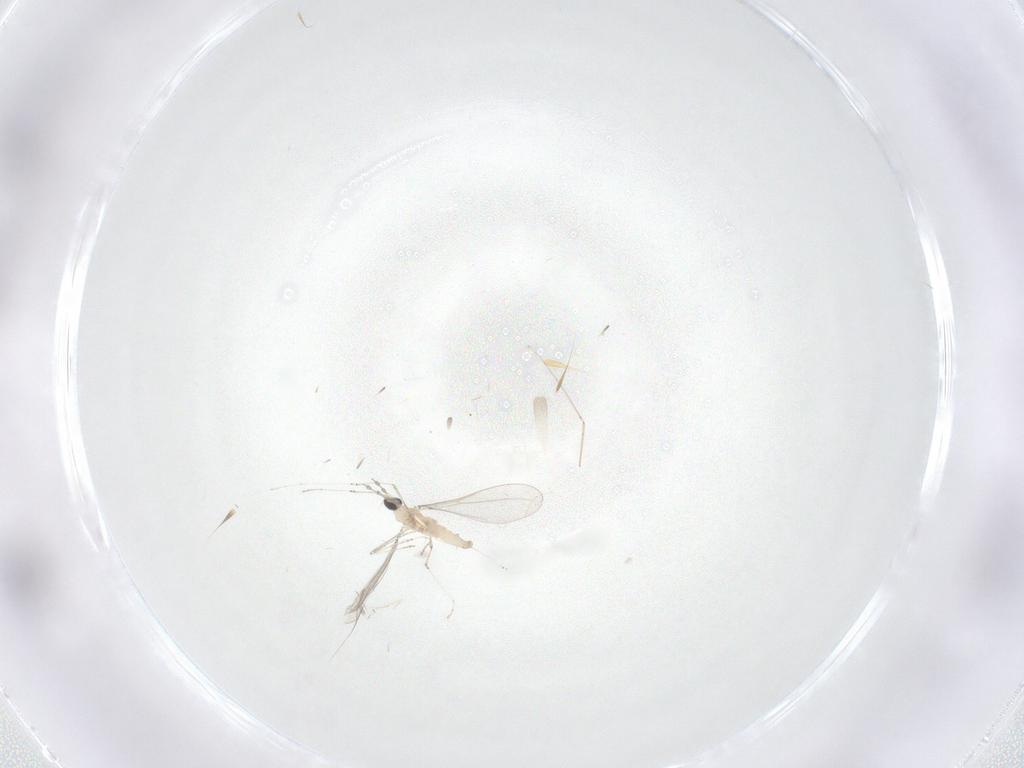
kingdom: Animalia
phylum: Arthropoda
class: Insecta
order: Diptera
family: Cecidomyiidae
